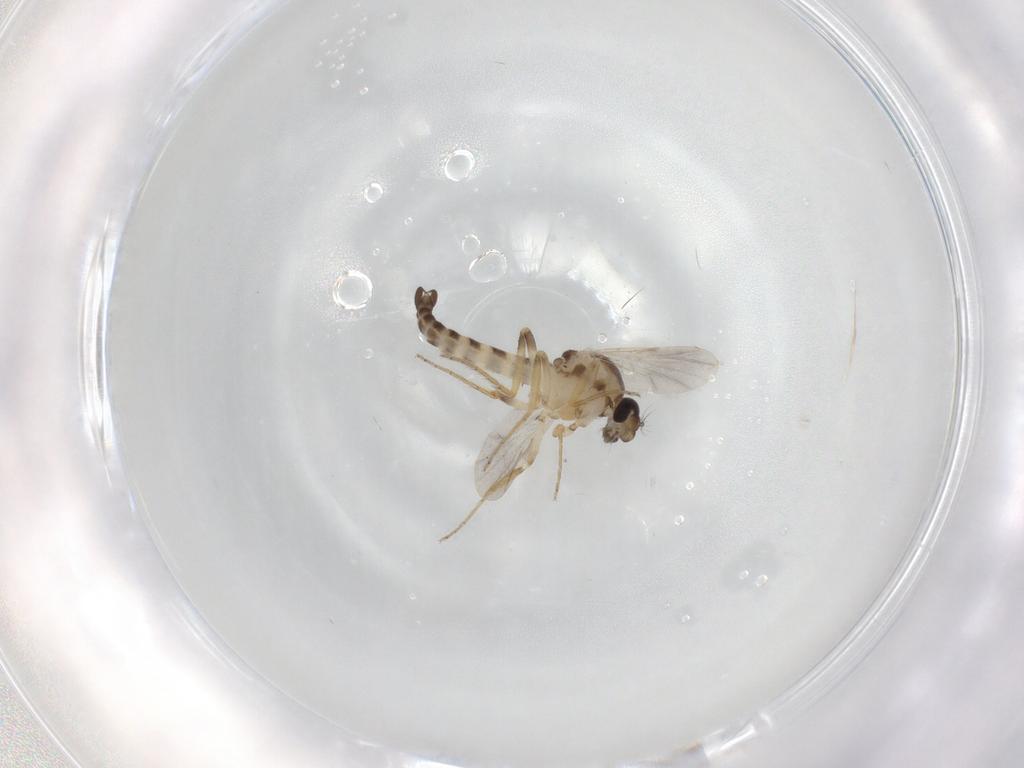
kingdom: Animalia
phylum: Arthropoda
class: Insecta
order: Diptera
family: Ceratopogonidae
